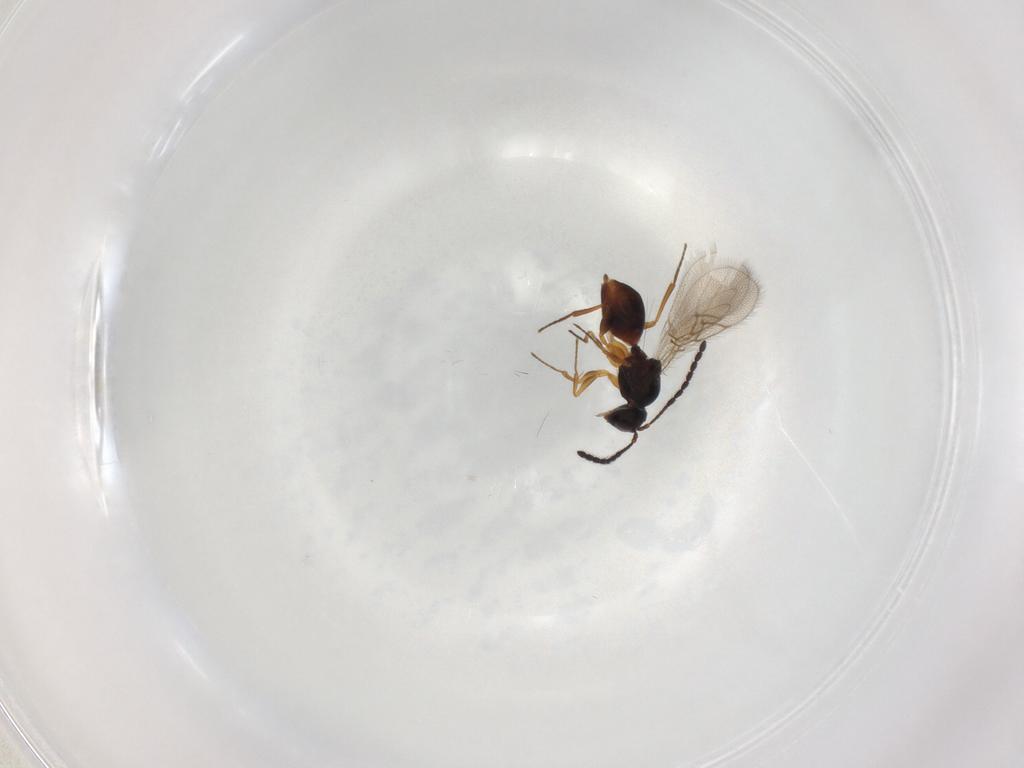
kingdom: Animalia
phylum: Arthropoda
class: Insecta
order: Hymenoptera
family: Figitidae
